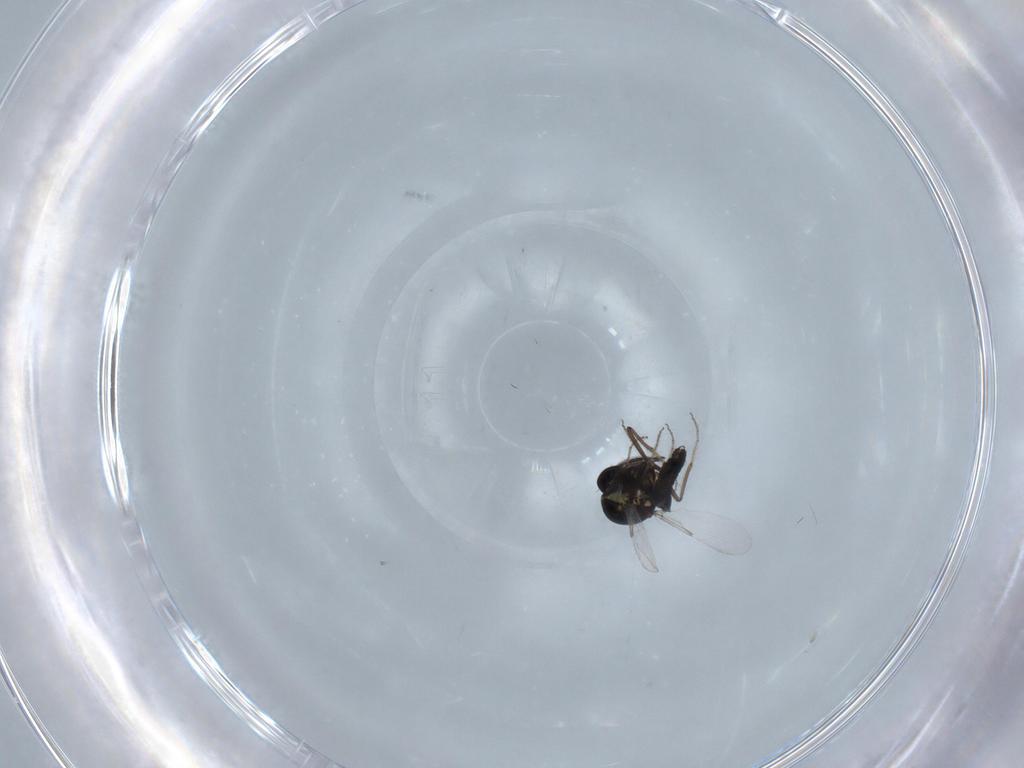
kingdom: Animalia
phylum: Arthropoda
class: Insecta
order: Diptera
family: Ceratopogonidae
